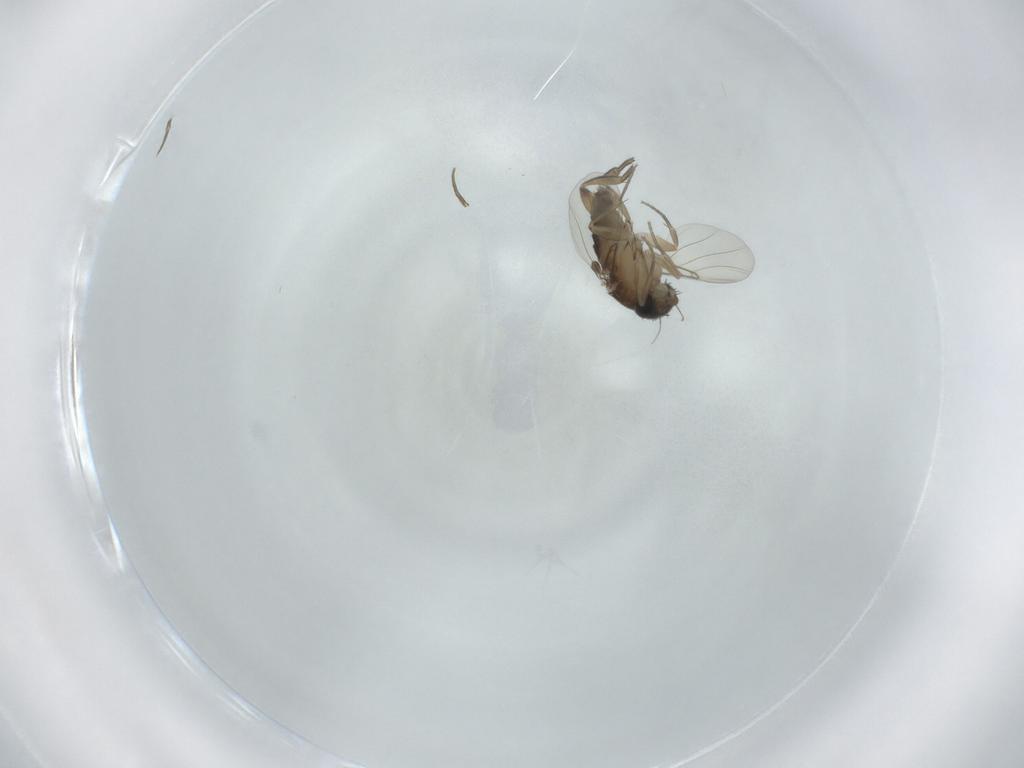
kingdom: Animalia
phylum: Arthropoda
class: Insecta
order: Diptera
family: Phoridae
